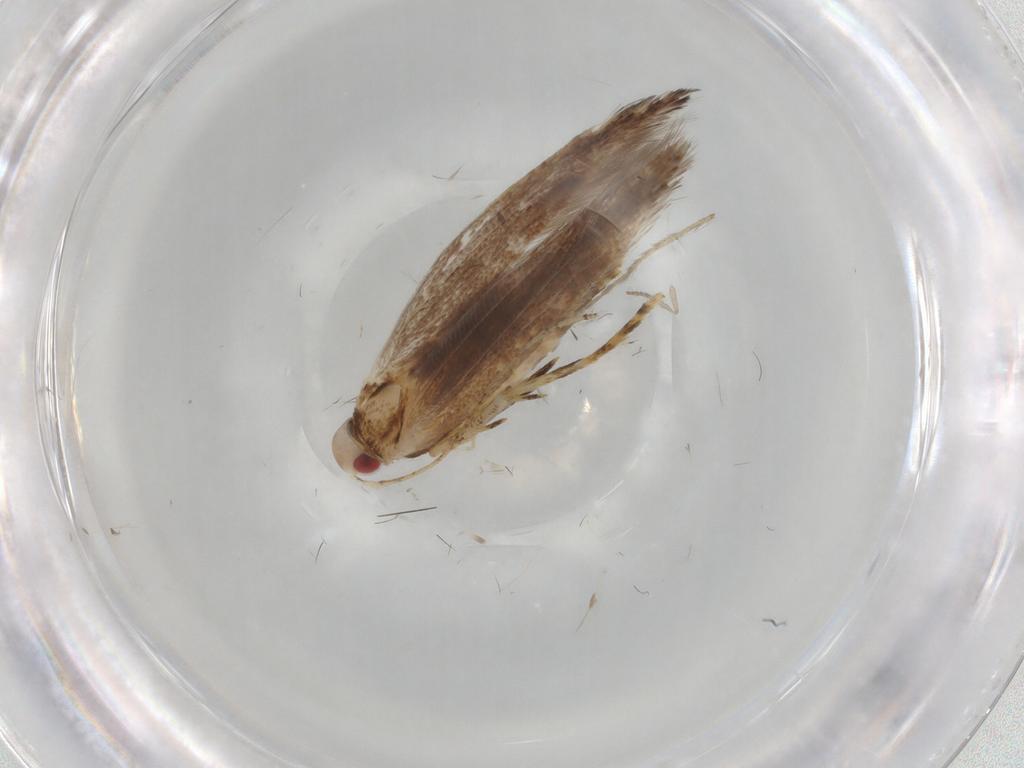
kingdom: Animalia
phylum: Arthropoda
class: Insecta
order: Lepidoptera
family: Cosmopterigidae
